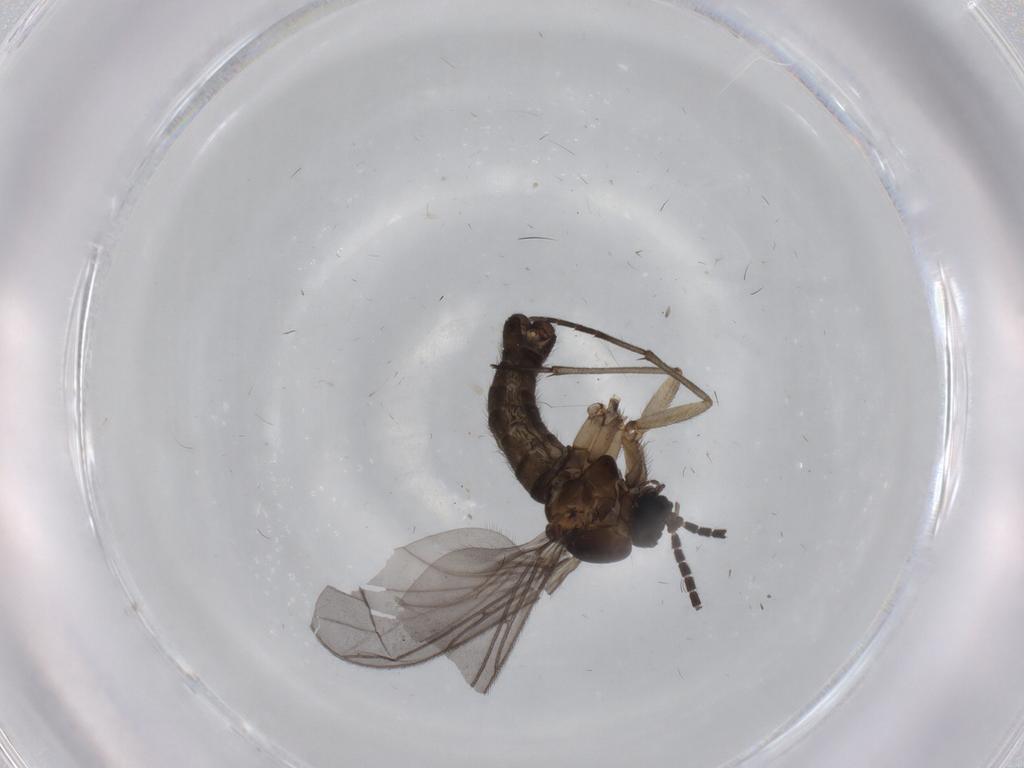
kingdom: Animalia
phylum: Arthropoda
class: Insecta
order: Diptera
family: Sciaridae
